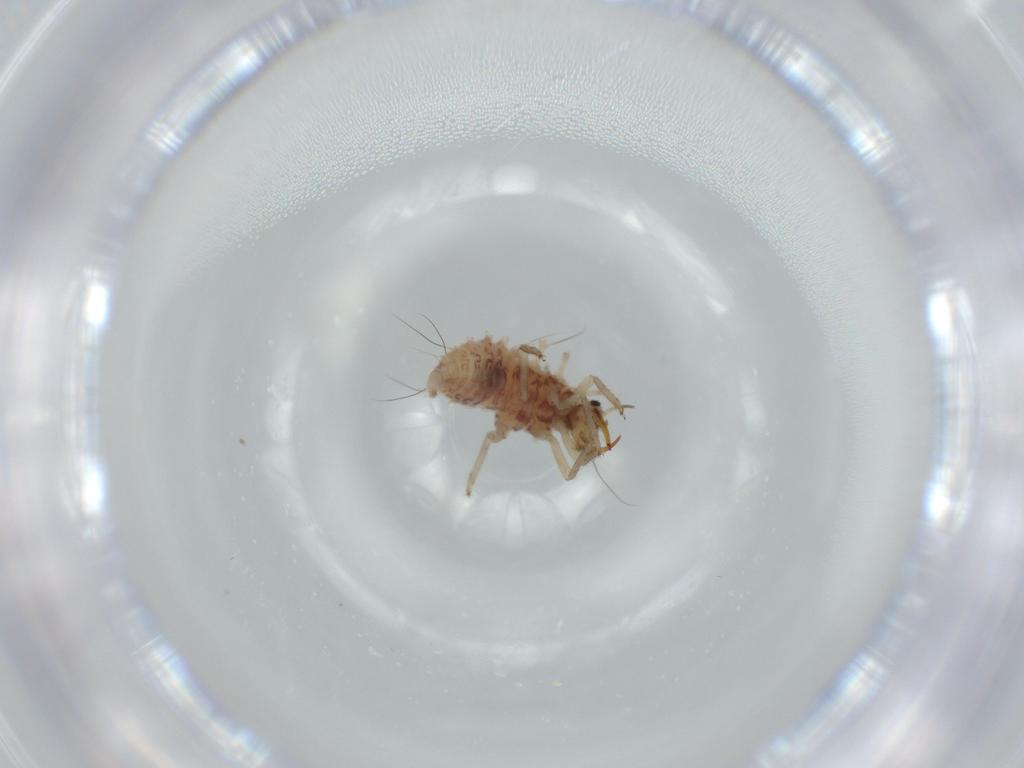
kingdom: Animalia
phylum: Arthropoda
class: Insecta
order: Neuroptera
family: Chrysopidae
